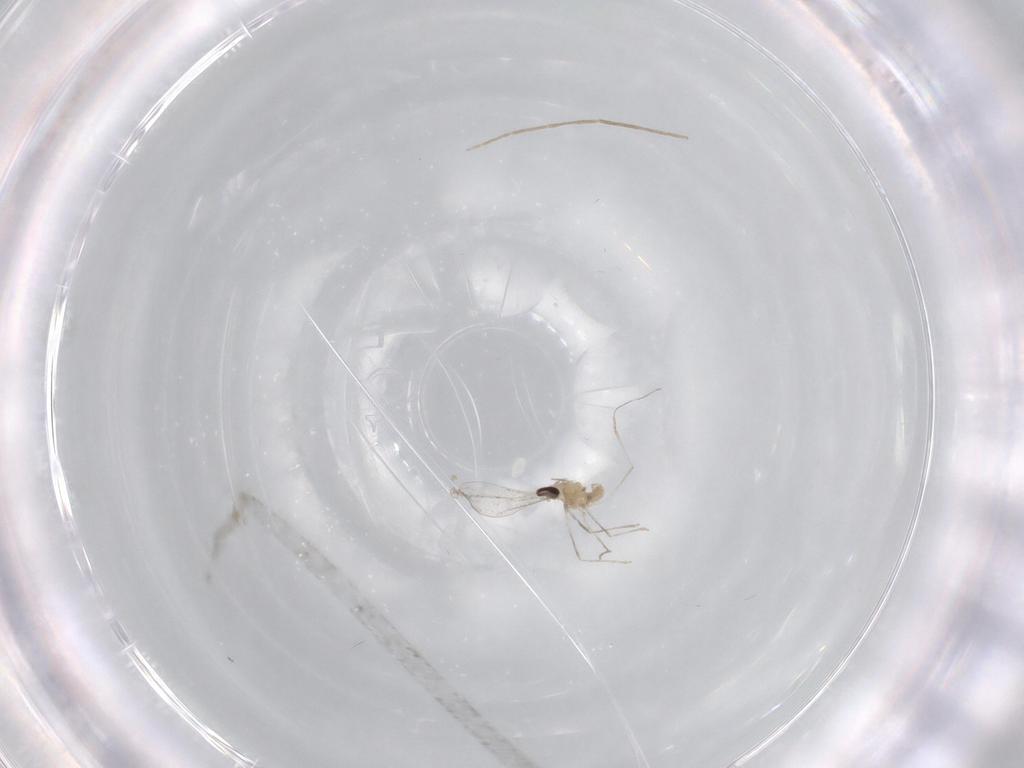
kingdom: Animalia
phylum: Arthropoda
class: Insecta
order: Diptera
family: Cecidomyiidae
